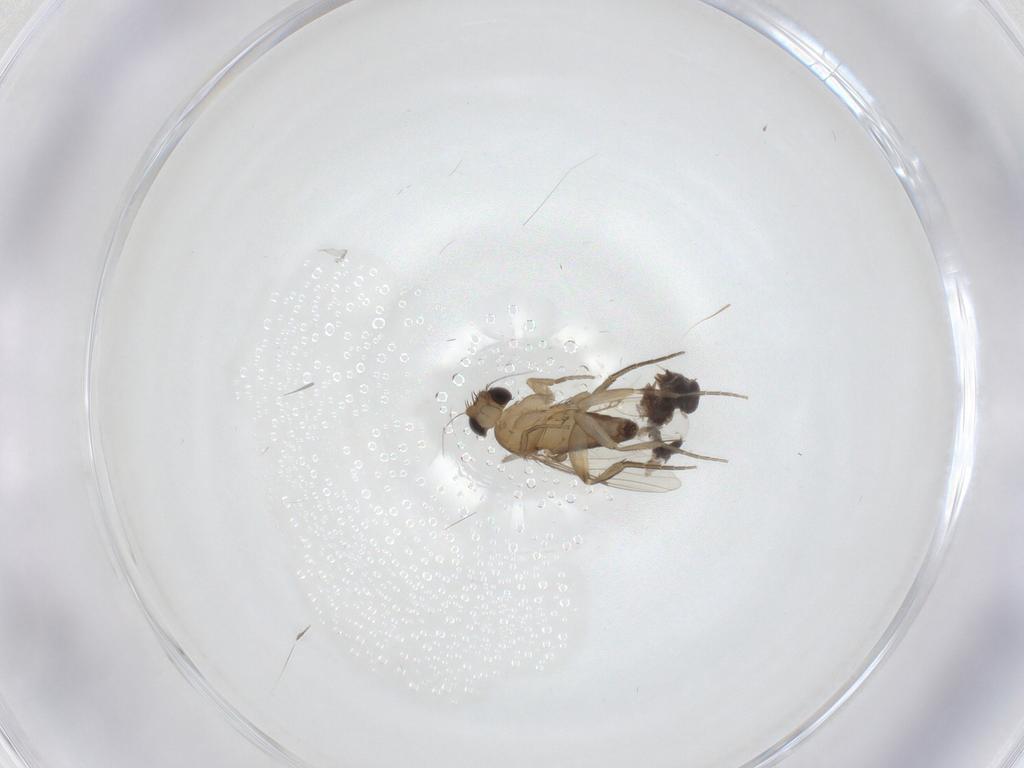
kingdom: Animalia
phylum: Arthropoda
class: Insecta
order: Diptera
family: Phoridae
